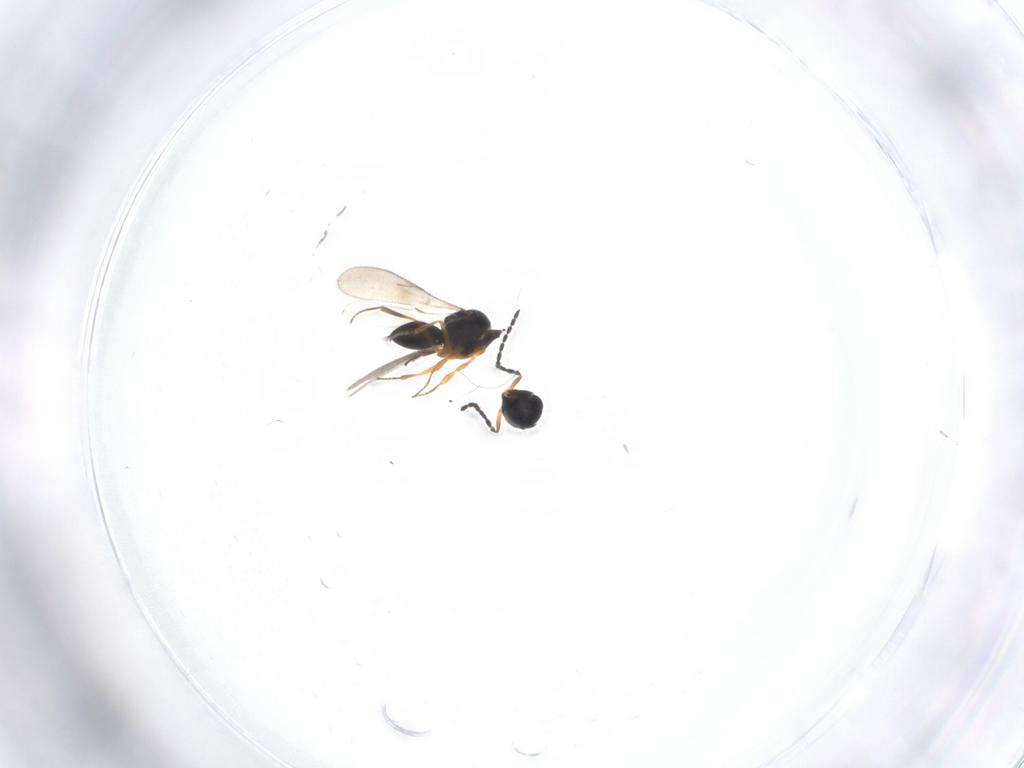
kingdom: Animalia
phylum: Arthropoda
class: Insecta
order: Hymenoptera
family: Scelionidae
